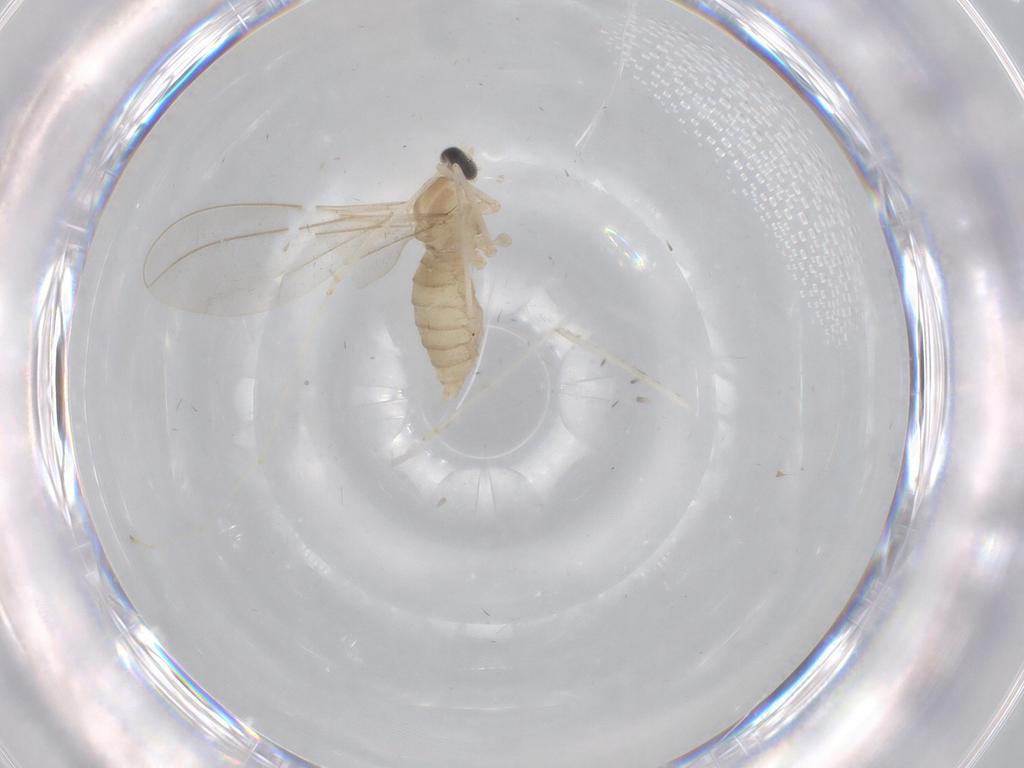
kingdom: Animalia
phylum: Arthropoda
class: Insecta
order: Diptera
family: Cecidomyiidae
